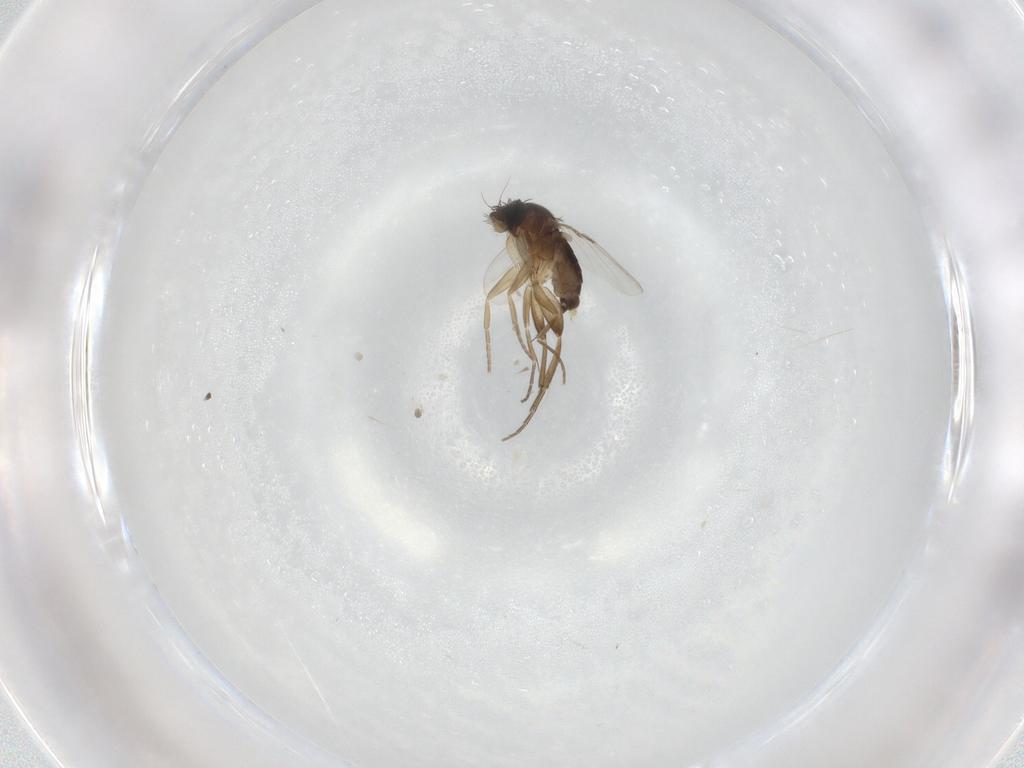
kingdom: Animalia
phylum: Arthropoda
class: Insecta
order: Diptera
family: Phoridae
